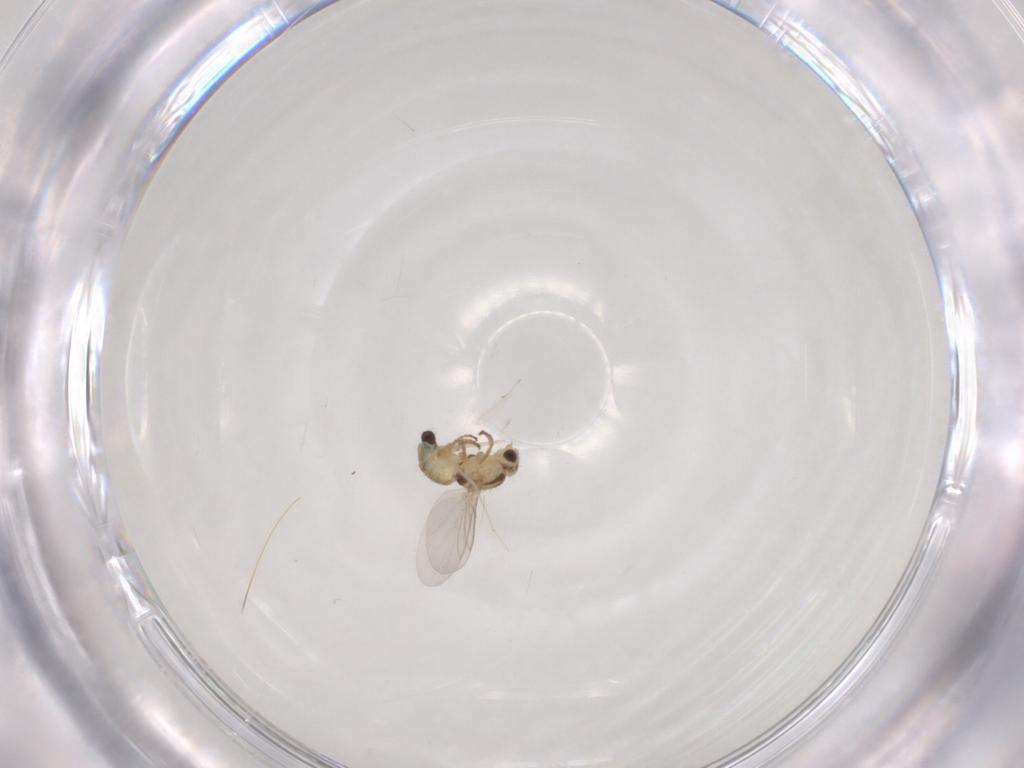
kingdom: Animalia
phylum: Arthropoda
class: Insecta
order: Diptera
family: Agromyzidae
